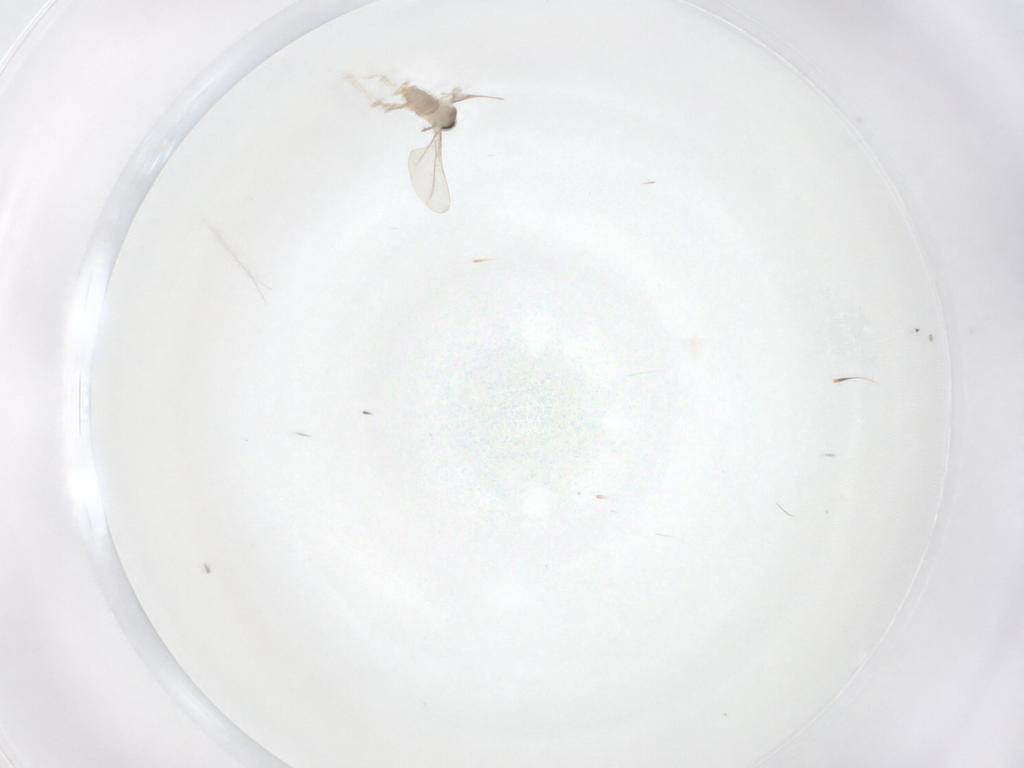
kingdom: Animalia
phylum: Arthropoda
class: Insecta
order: Diptera
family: Cecidomyiidae
